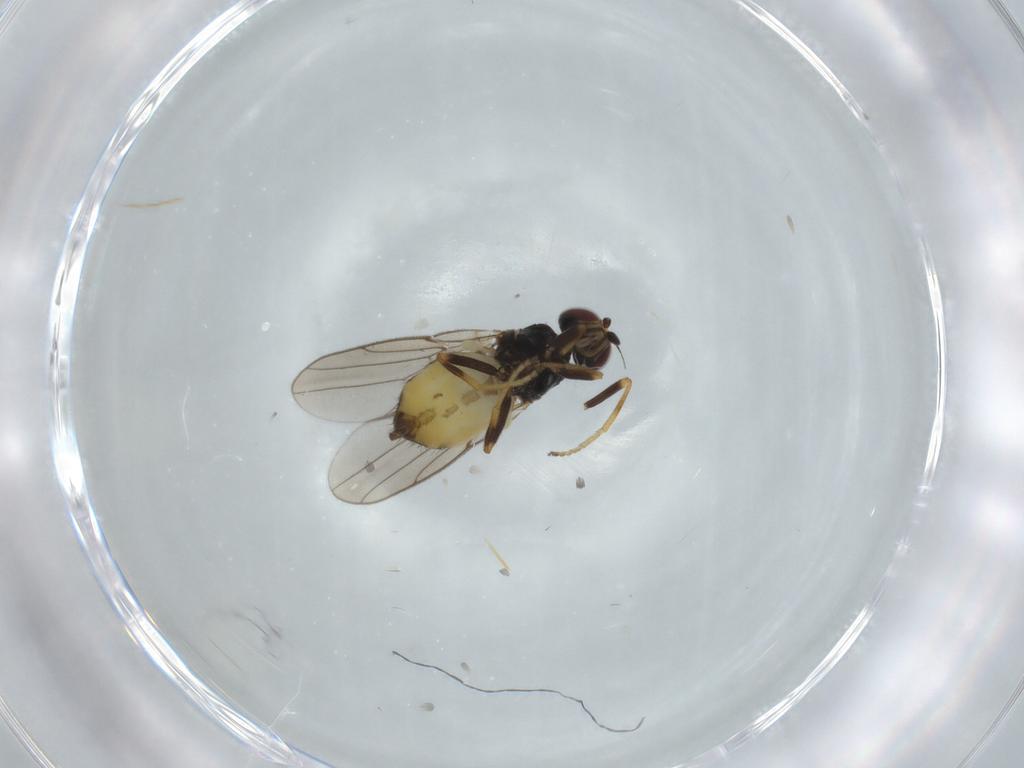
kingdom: Animalia
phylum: Arthropoda
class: Insecta
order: Diptera
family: Chloropidae
